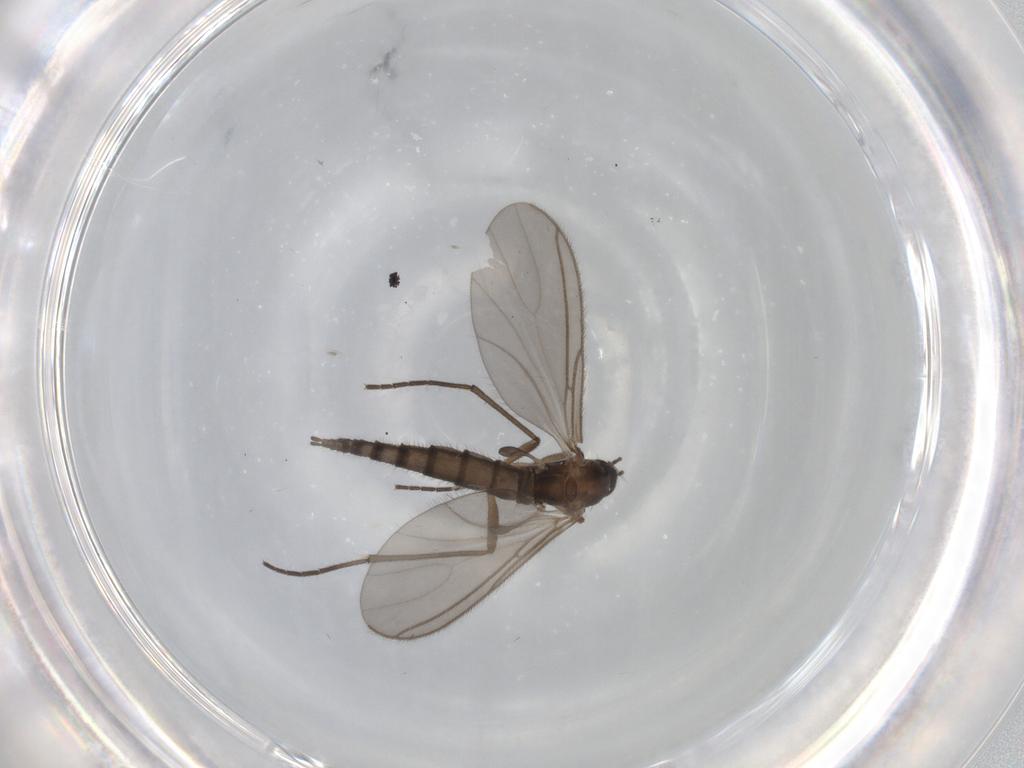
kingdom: Animalia
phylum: Arthropoda
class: Insecta
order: Diptera
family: Sciaridae
